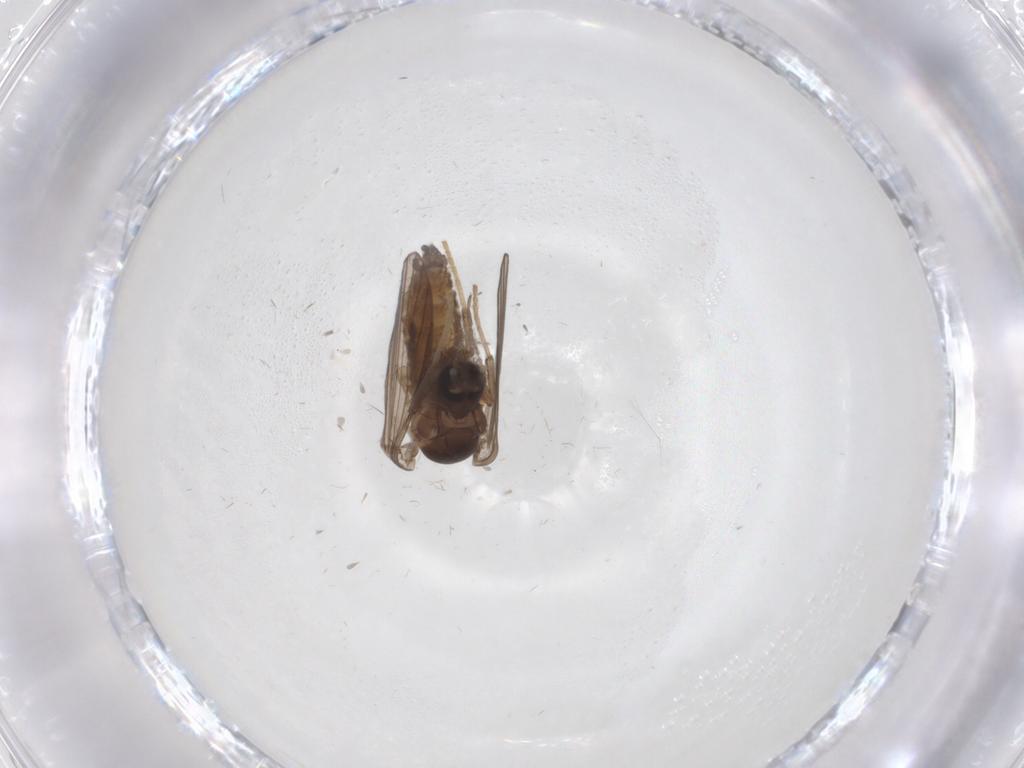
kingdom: Animalia
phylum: Arthropoda
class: Insecta
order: Diptera
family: Psychodidae
